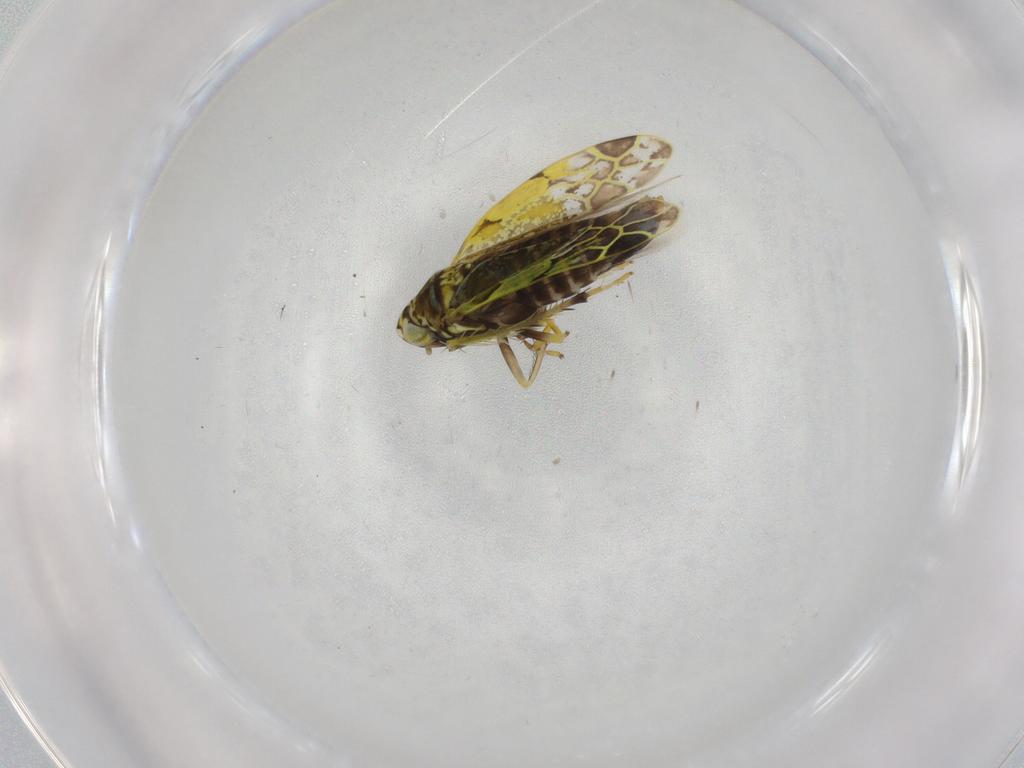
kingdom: Animalia
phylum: Arthropoda
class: Insecta
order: Hemiptera
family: Cicadellidae
